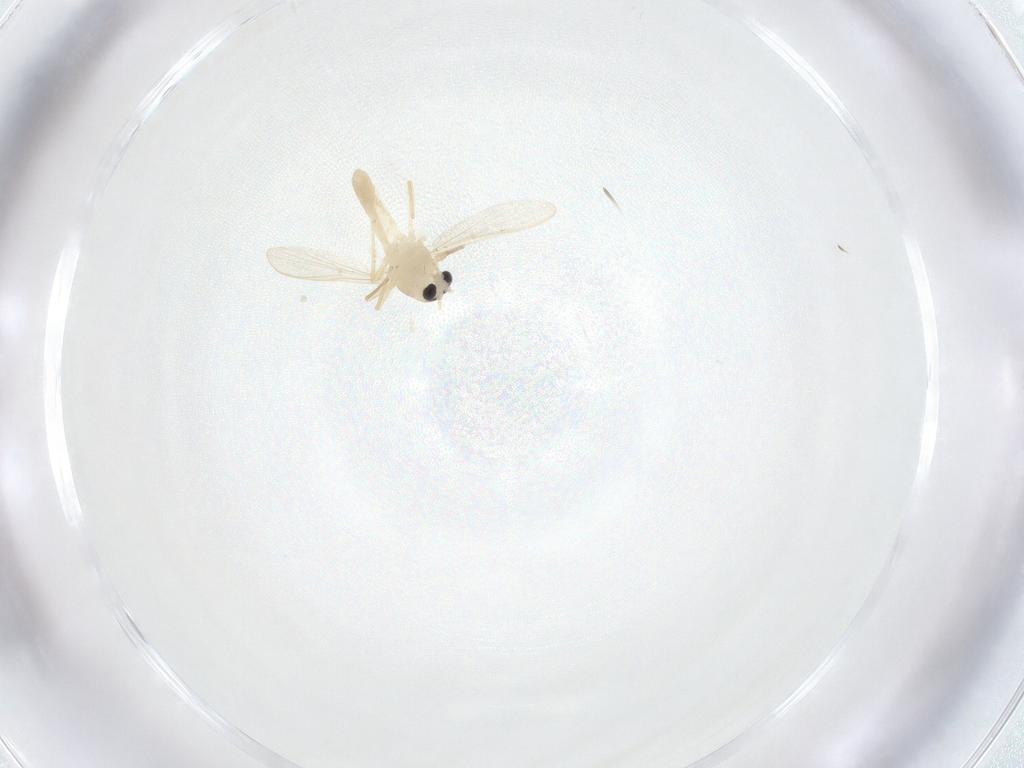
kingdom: Animalia
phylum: Arthropoda
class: Insecta
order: Diptera
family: Chironomidae
